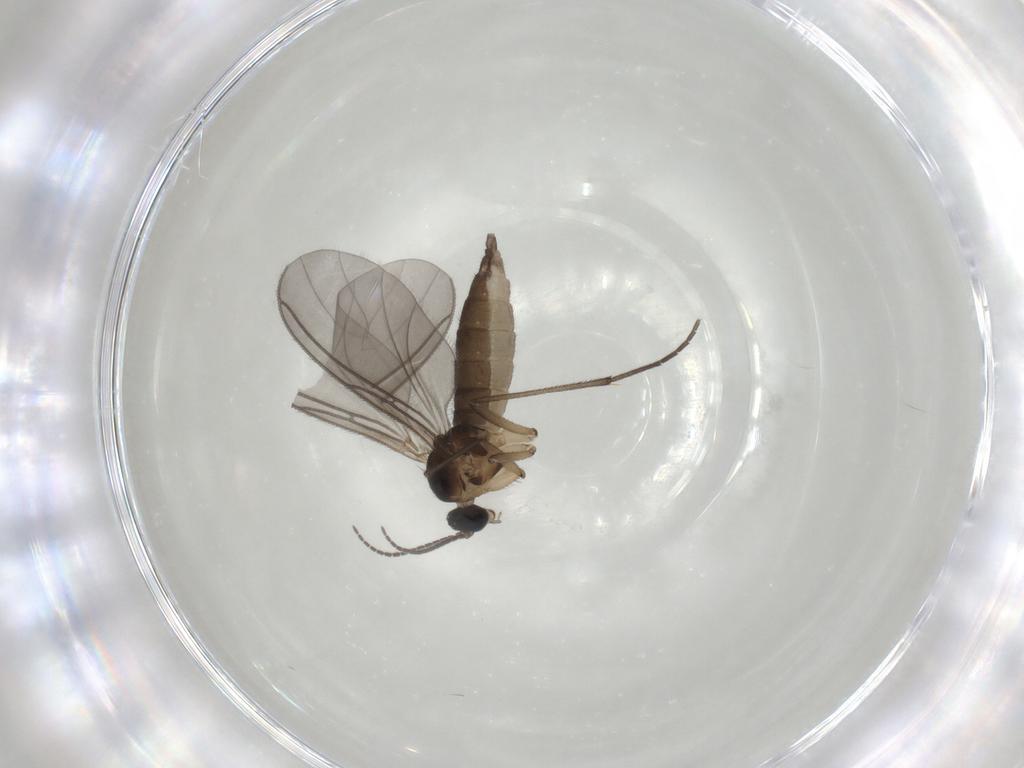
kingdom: Animalia
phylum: Arthropoda
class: Insecta
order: Diptera
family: Sciaridae
